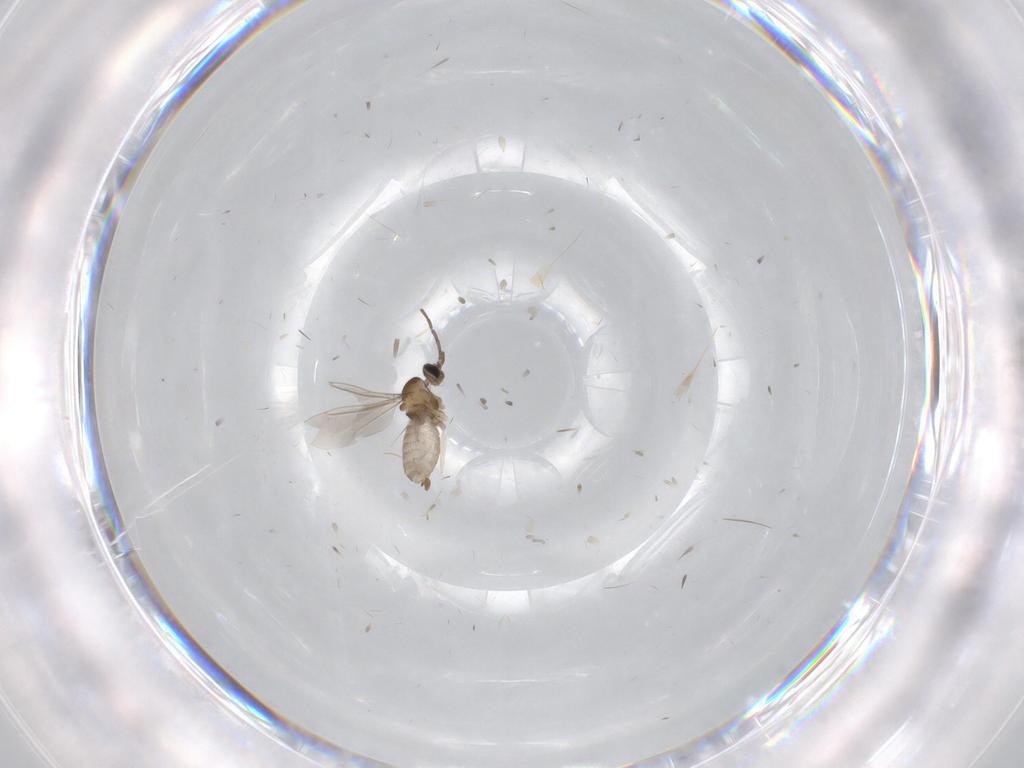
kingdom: Animalia
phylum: Arthropoda
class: Insecta
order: Diptera
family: Cecidomyiidae
